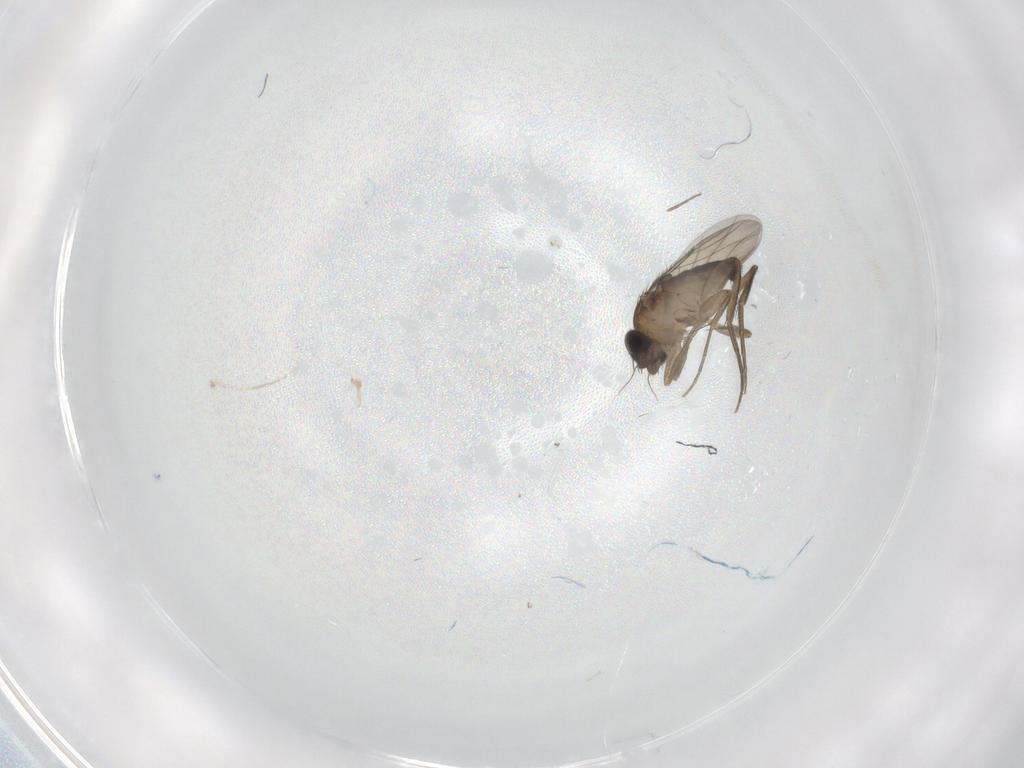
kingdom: Animalia
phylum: Arthropoda
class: Insecta
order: Diptera
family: Phoridae
